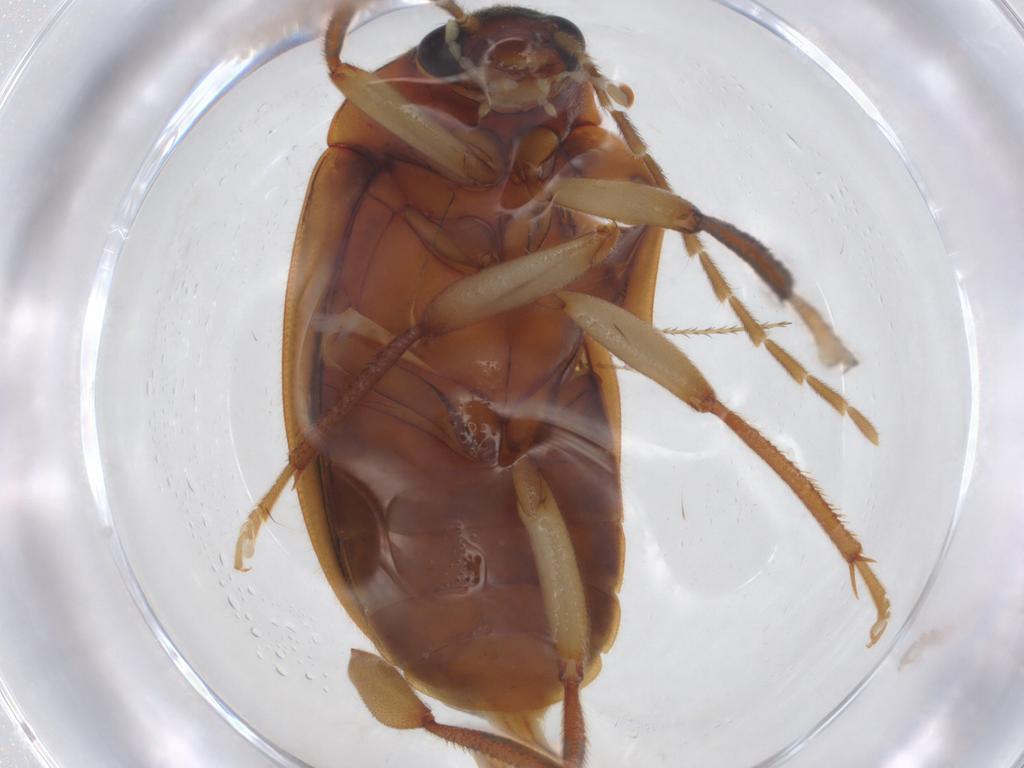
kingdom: Animalia
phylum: Arthropoda
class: Insecta
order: Coleoptera
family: Ptilodactylidae
